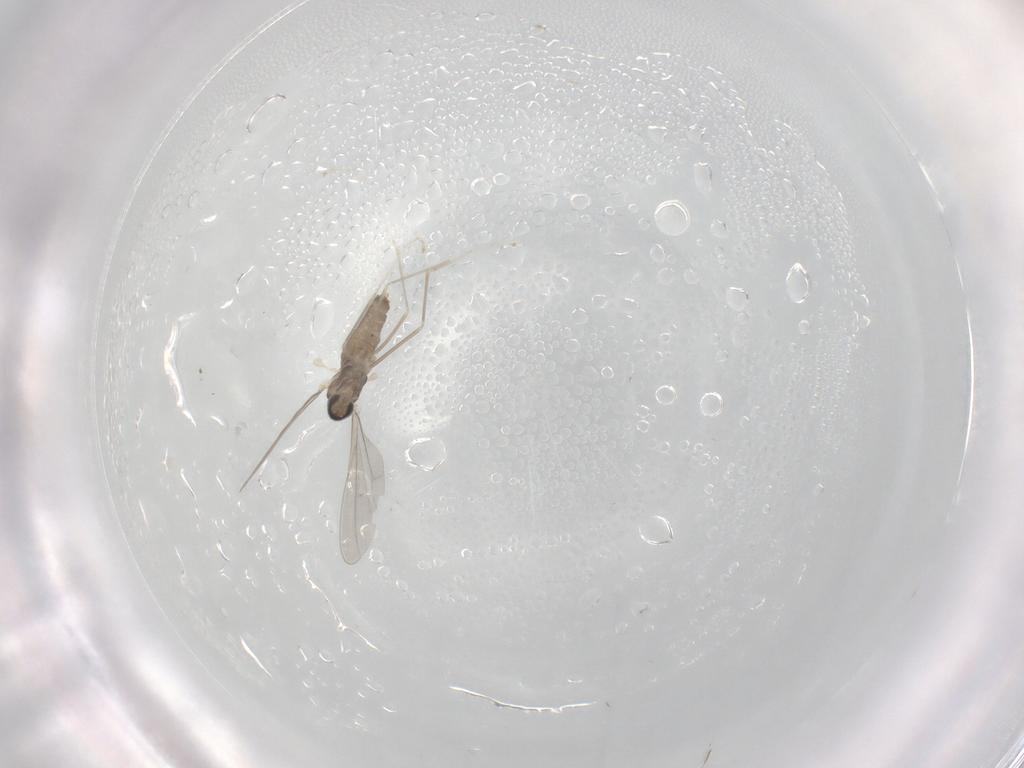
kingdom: Animalia
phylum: Arthropoda
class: Insecta
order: Diptera
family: Cecidomyiidae
